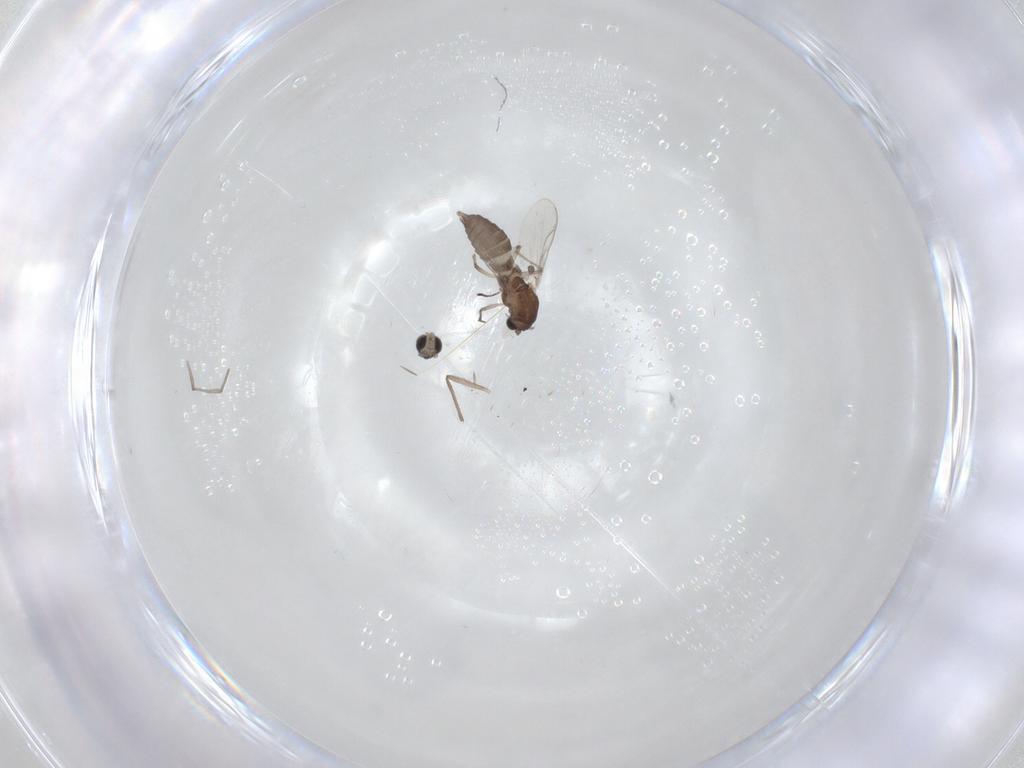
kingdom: Animalia
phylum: Arthropoda
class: Insecta
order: Diptera
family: Chironomidae
